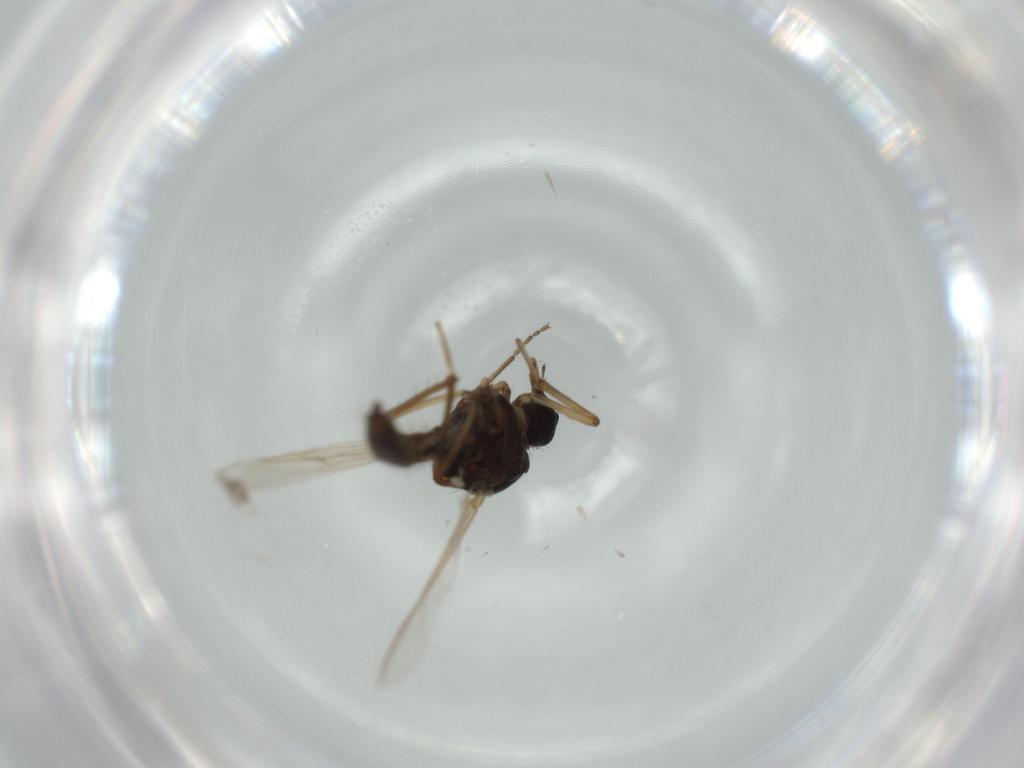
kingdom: Animalia
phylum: Arthropoda
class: Insecta
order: Diptera
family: Ceratopogonidae
